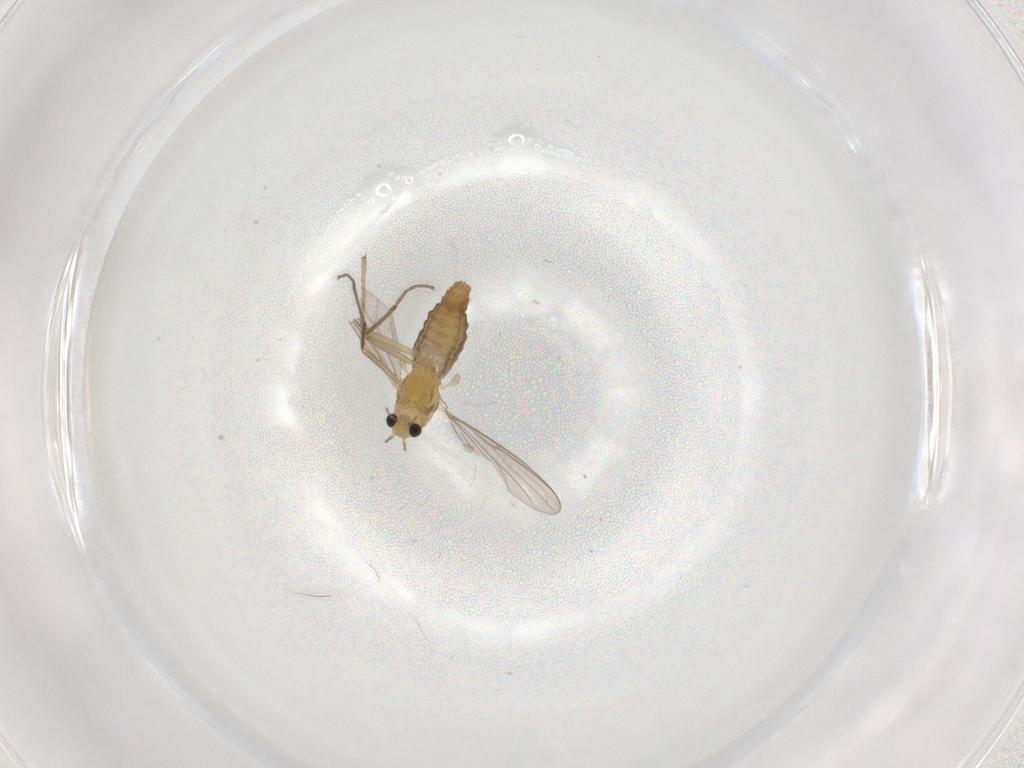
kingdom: Animalia
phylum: Arthropoda
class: Insecta
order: Diptera
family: Chironomidae
